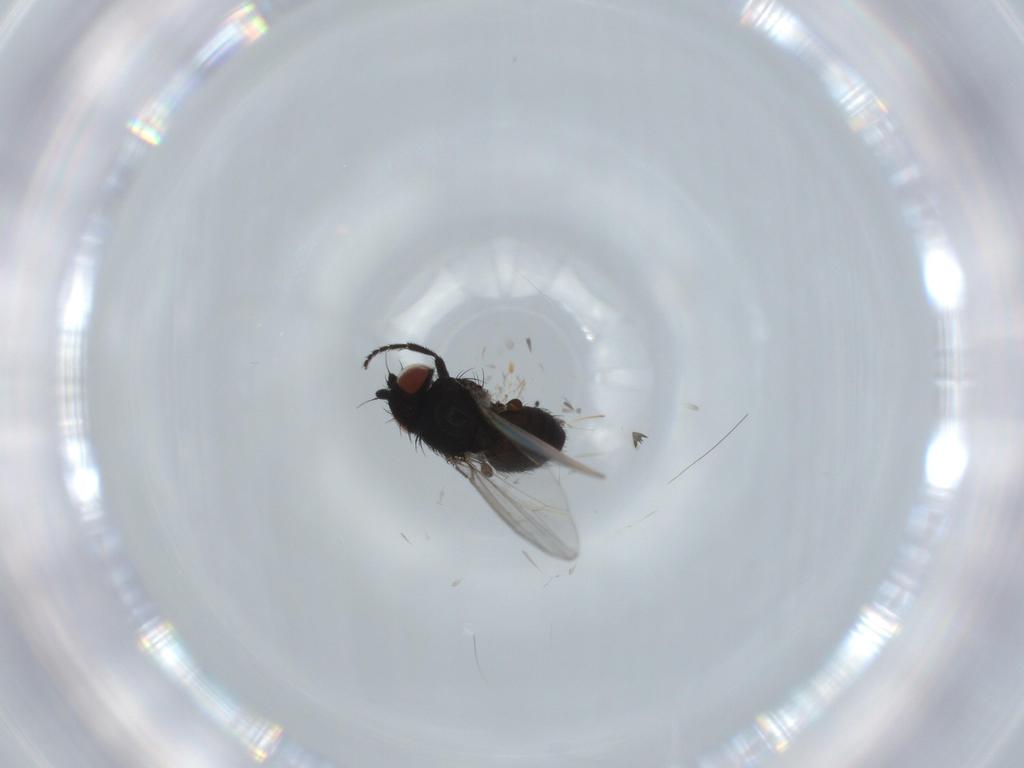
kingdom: Animalia
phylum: Arthropoda
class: Insecta
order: Diptera
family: Milichiidae
